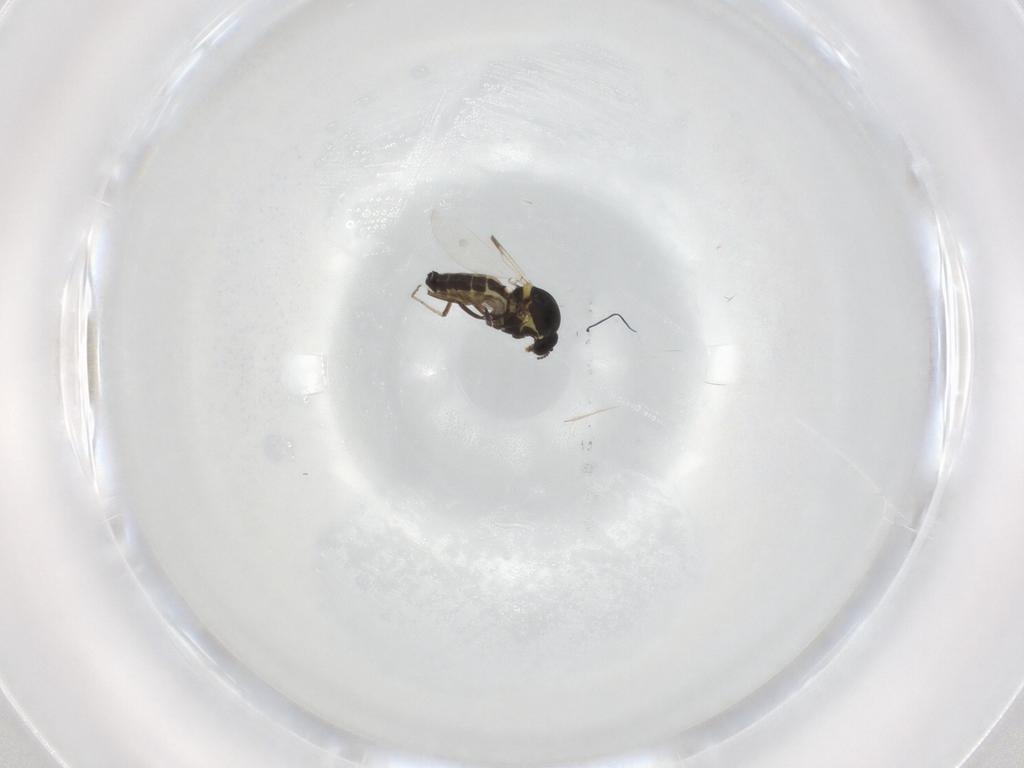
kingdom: Animalia
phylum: Arthropoda
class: Insecta
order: Diptera
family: Ceratopogonidae
